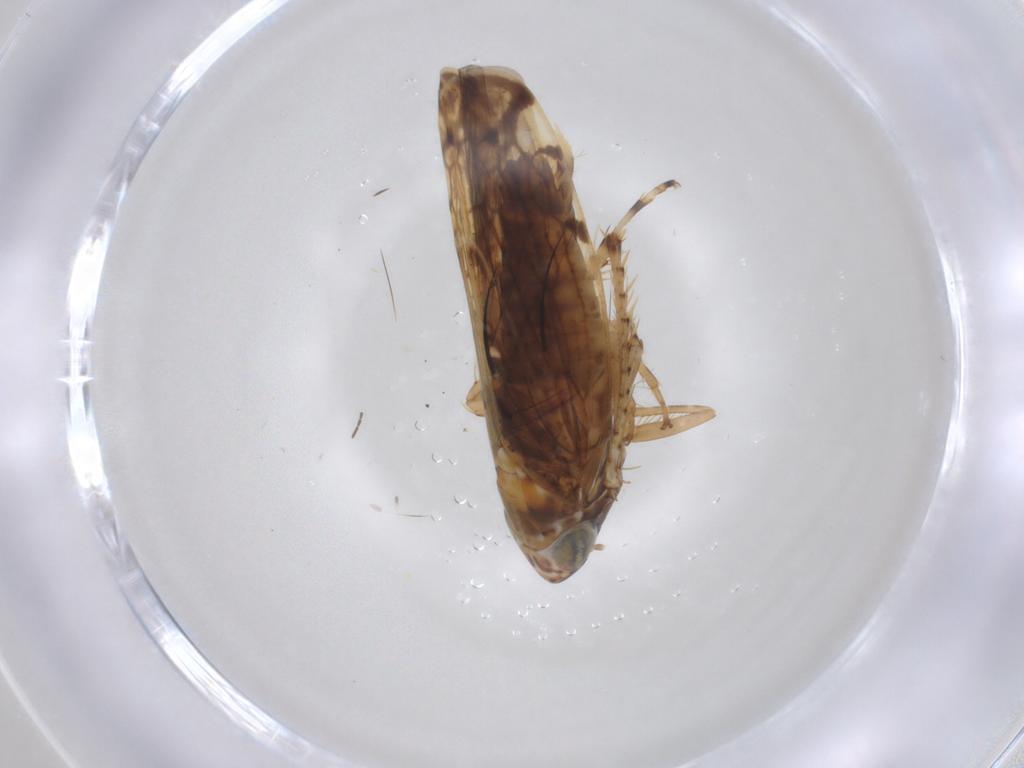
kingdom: Animalia
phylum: Arthropoda
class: Insecta
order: Hemiptera
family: Cicadellidae
